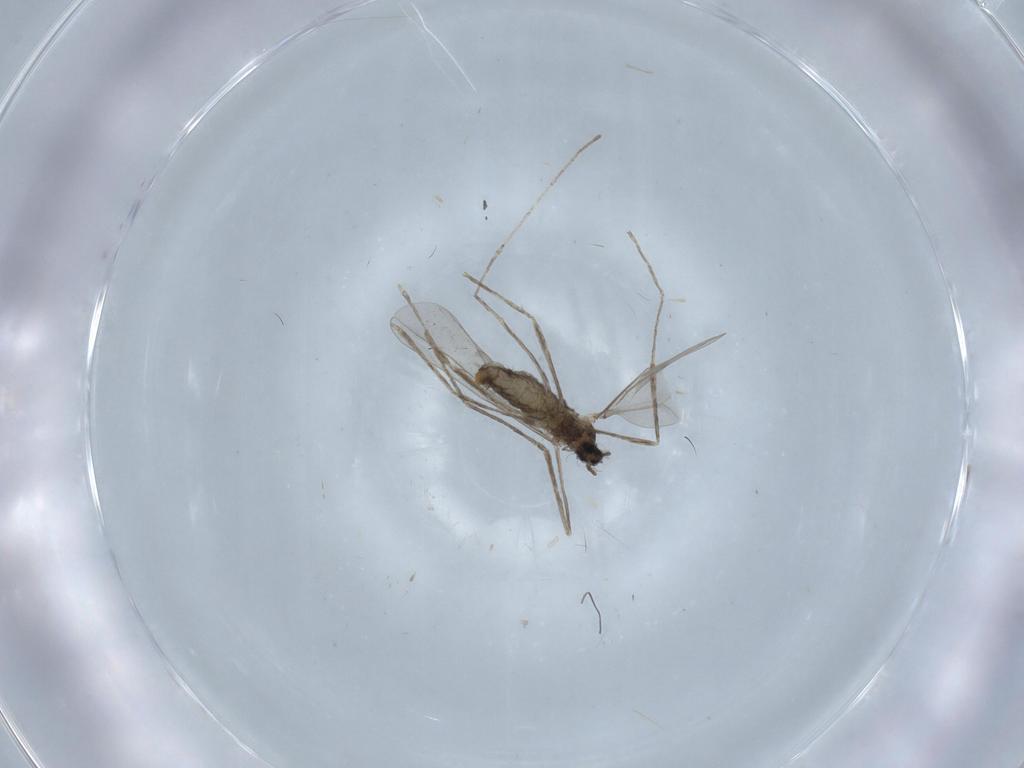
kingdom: Animalia
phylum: Arthropoda
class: Insecta
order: Diptera
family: Cecidomyiidae
